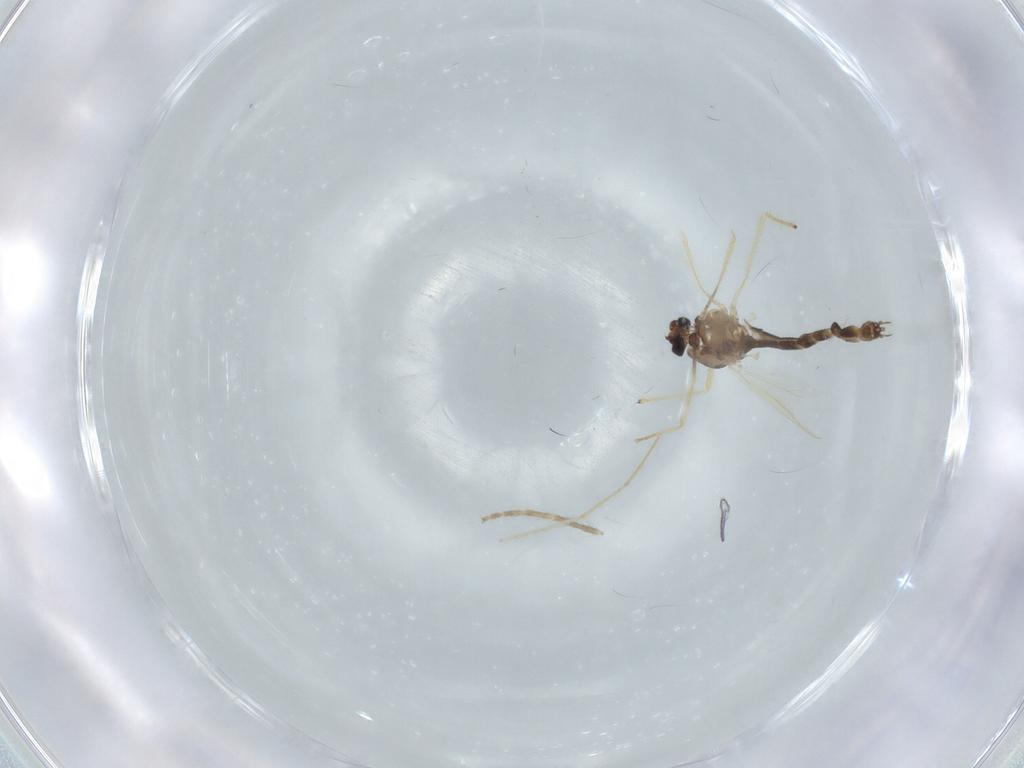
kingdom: Animalia
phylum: Arthropoda
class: Insecta
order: Diptera
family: Chironomidae
